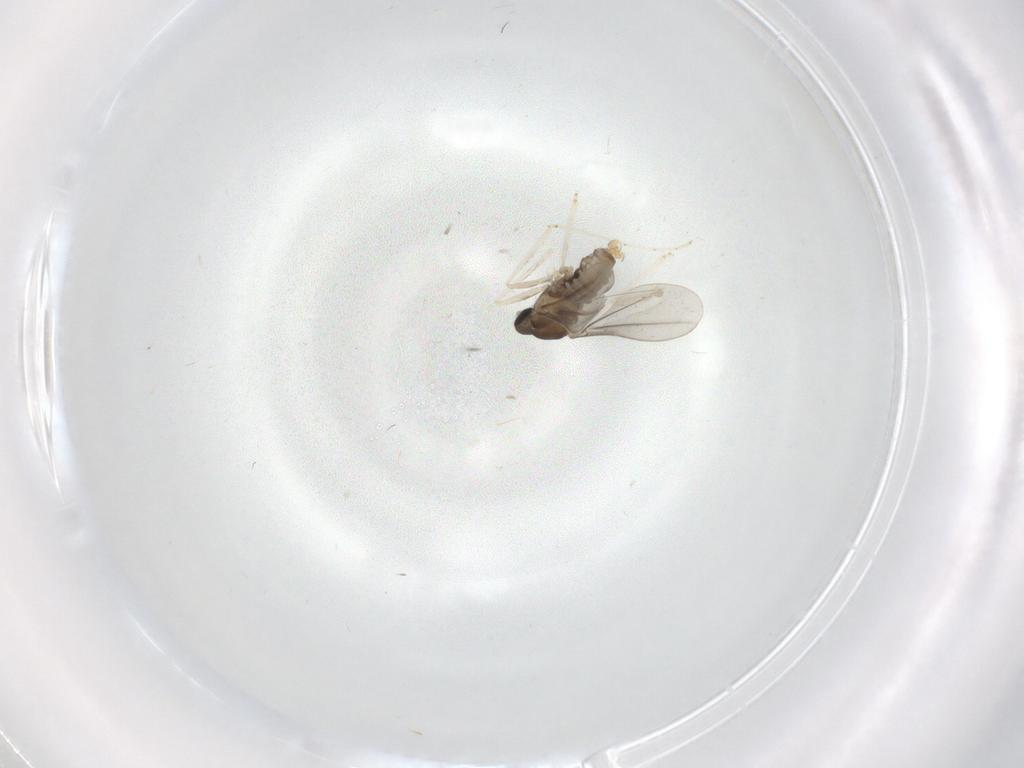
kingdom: Animalia
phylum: Arthropoda
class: Insecta
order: Diptera
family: Cecidomyiidae
